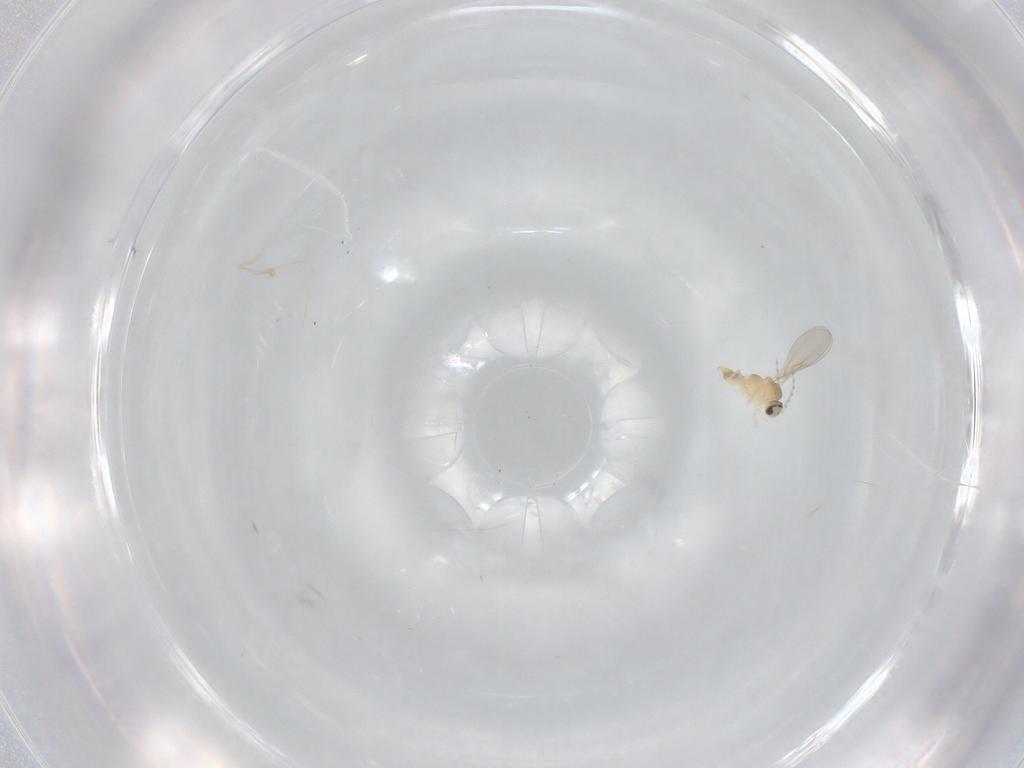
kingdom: Animalia
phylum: Arthropoda
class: Insecta
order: Diptera
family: Cecidomyiidae
